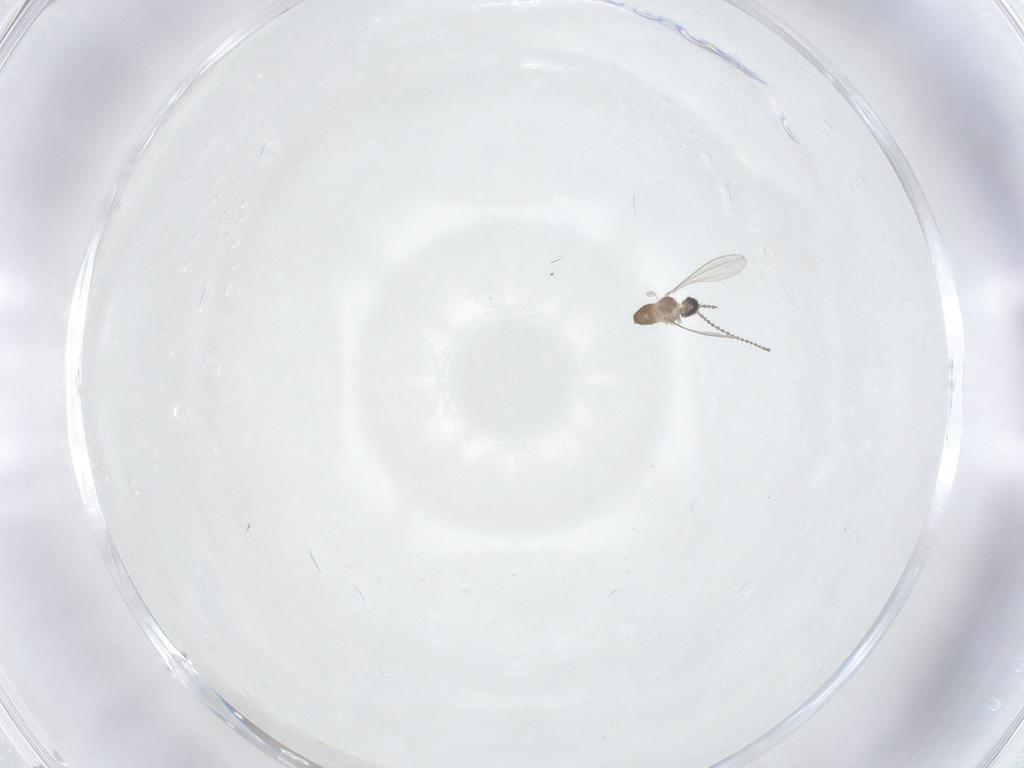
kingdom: Animalia
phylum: Arthropoda
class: Insecta
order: Diptera
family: Cecidomyiidae
